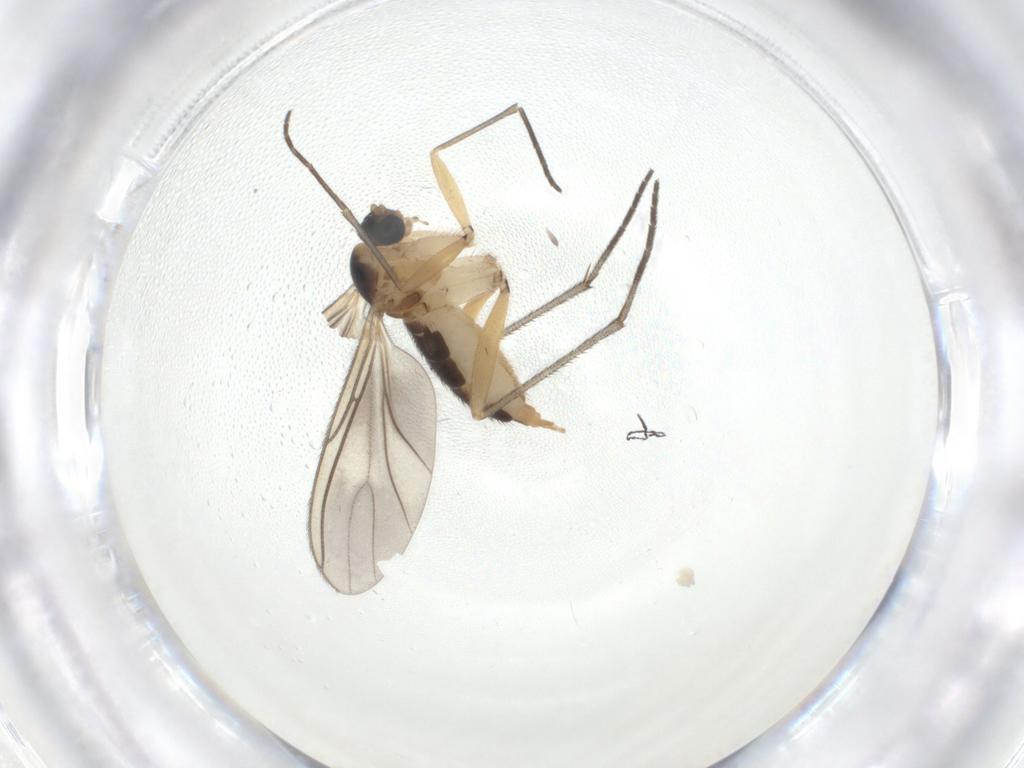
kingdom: Animalia
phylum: Arthropoda
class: Insecta
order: Diptera
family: Sciaridae
